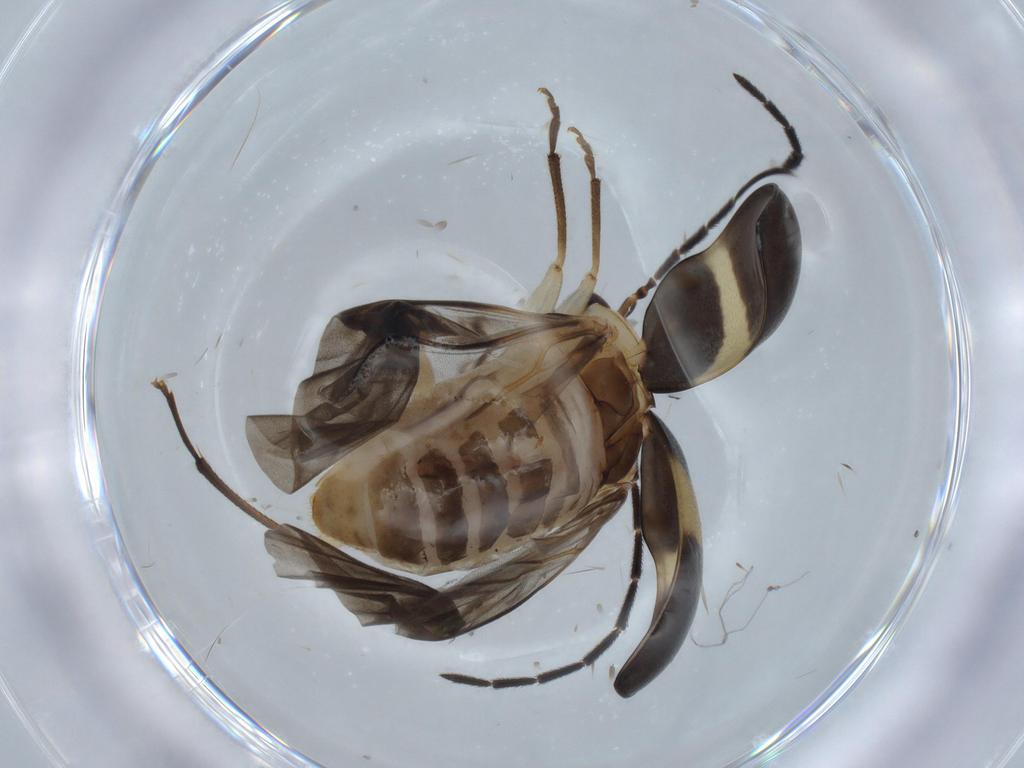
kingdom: Animalia
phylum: Arthropoda
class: Insecta
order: Coleoptera
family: Chrysomelidae
